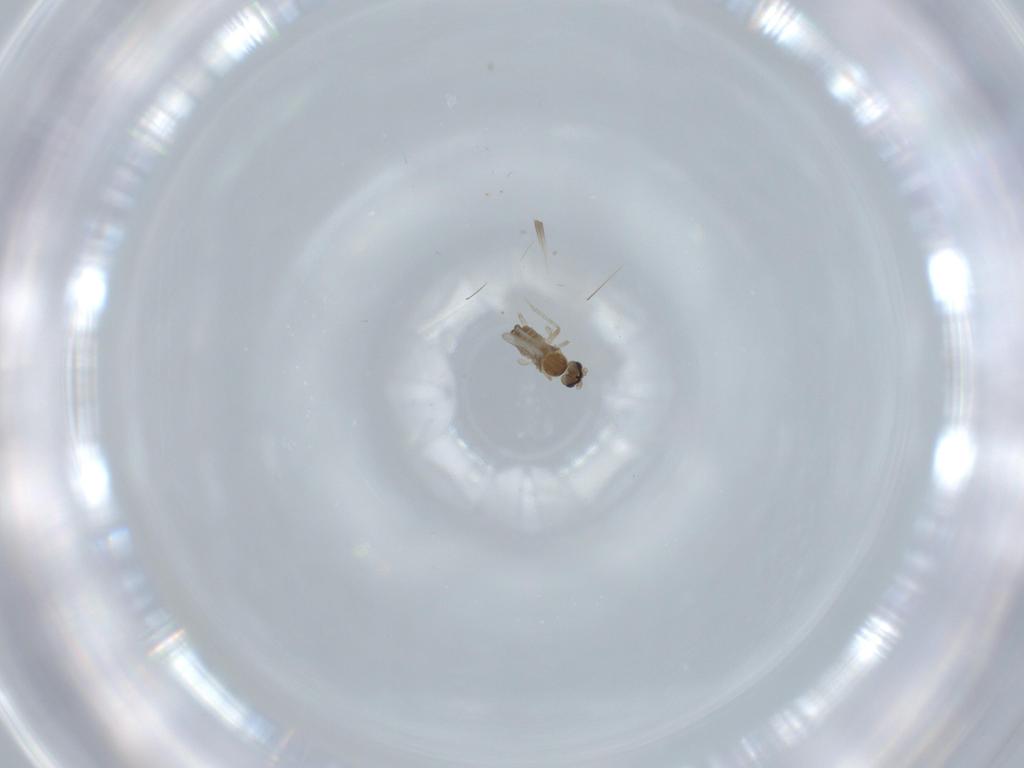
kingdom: Animalia
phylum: Arthropoda
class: Insecta
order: Diptera
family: Cecidomyiidae
